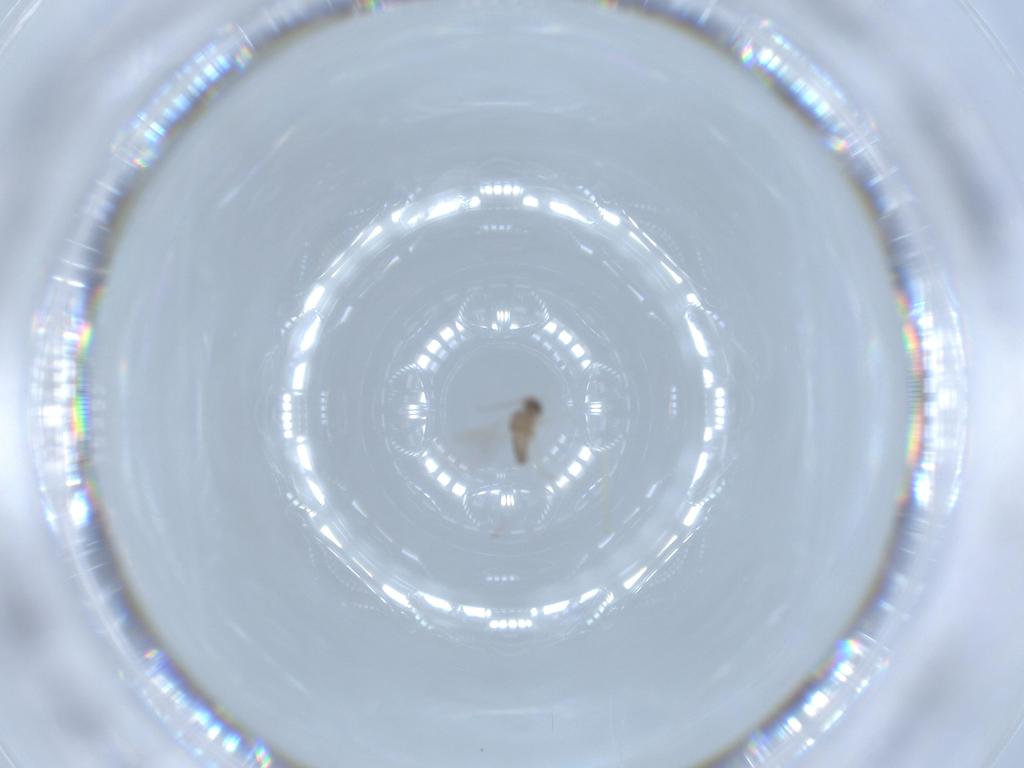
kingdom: Animalia
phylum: Arthropoda
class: Insecta
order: Diptera
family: Cecidomyiidae
